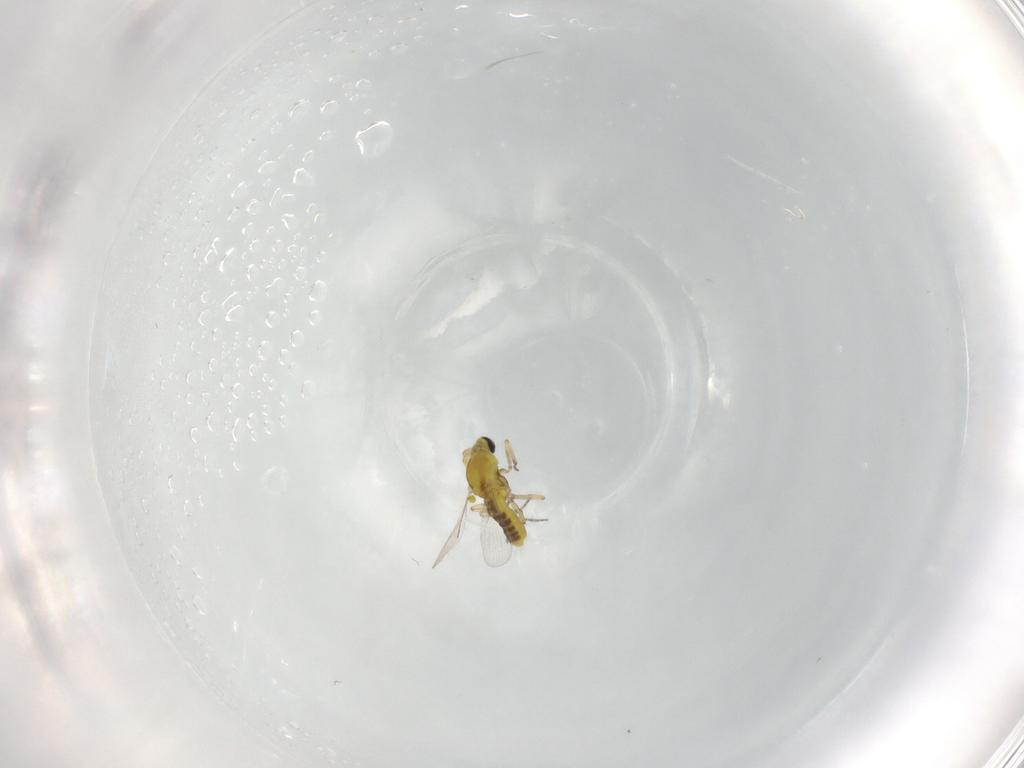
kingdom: Animalia
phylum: Arthropoda
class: Insecta
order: Diptera
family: Ceratopogonidae
